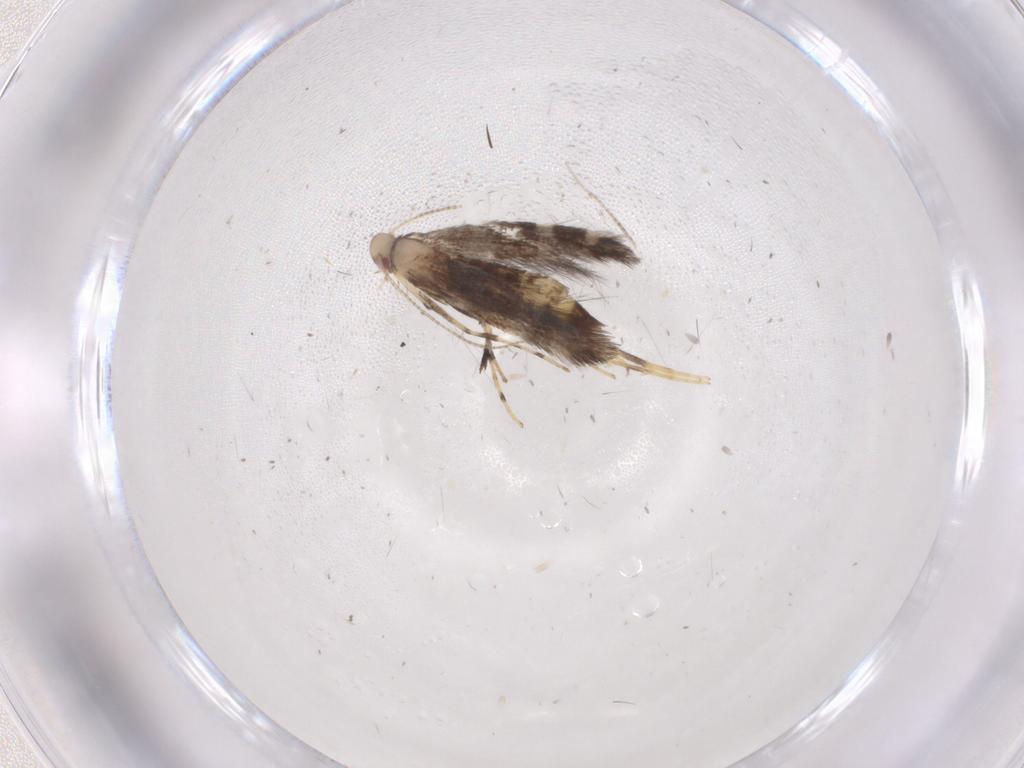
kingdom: Animalia
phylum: Arthropoda
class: Insecta
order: Lepidoptera
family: Gracillariidae
